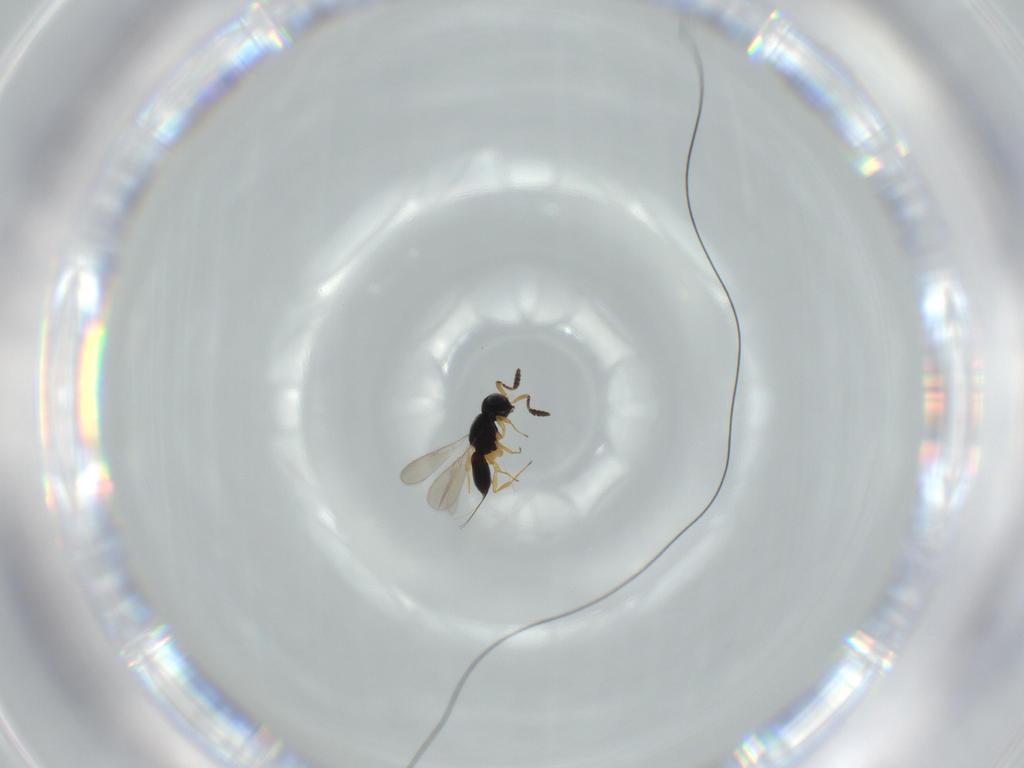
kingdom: Animalia
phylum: Arthropoda
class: Insecta
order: Hymenoptera
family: Scelionidae
